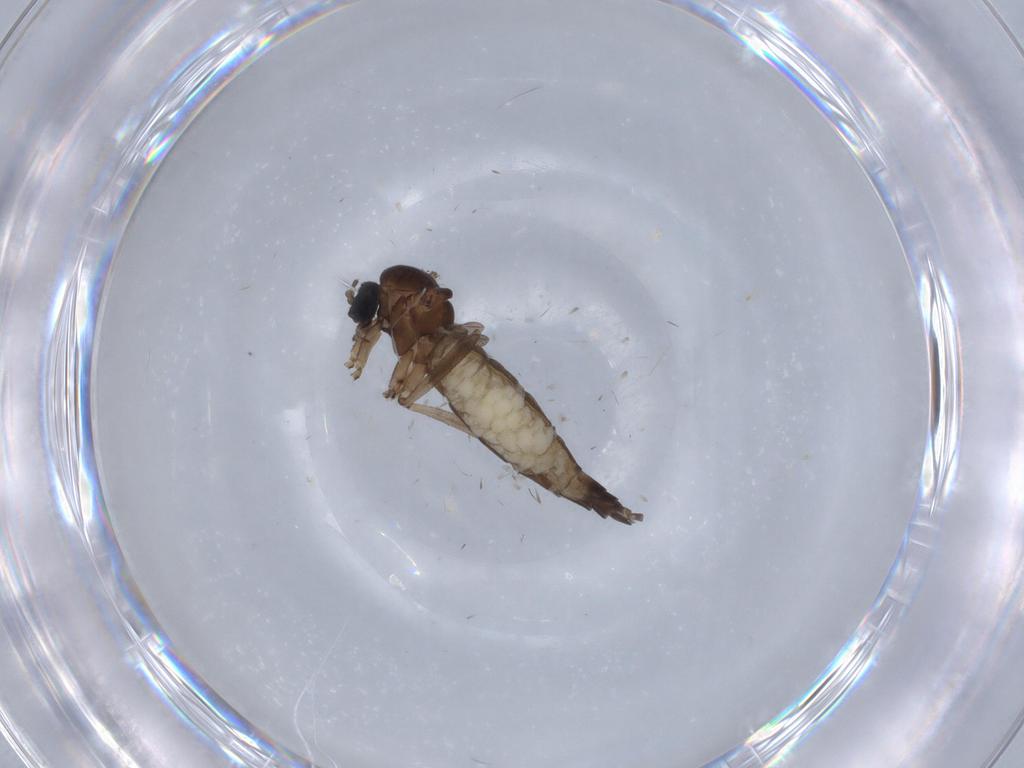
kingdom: Animalia
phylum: Arthropoda
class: Insecta
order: Diptera
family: Sciaridae
